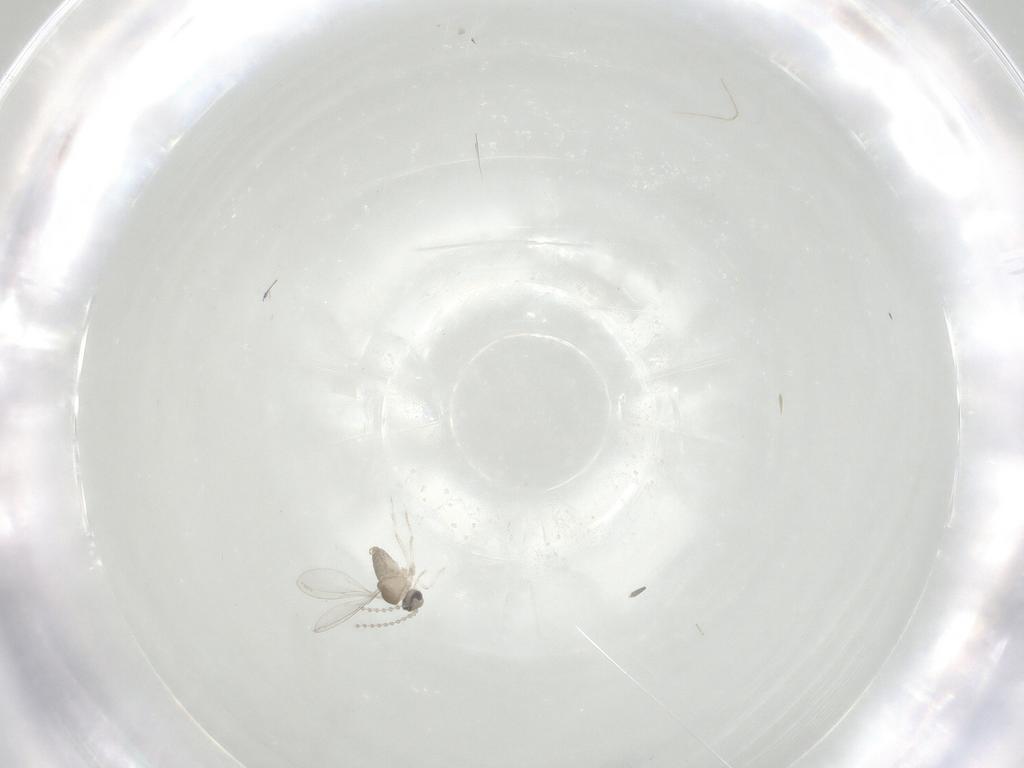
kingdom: Animalia
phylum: Arthropoda
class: Insecta
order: Diptera
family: Cecidomyiidae
